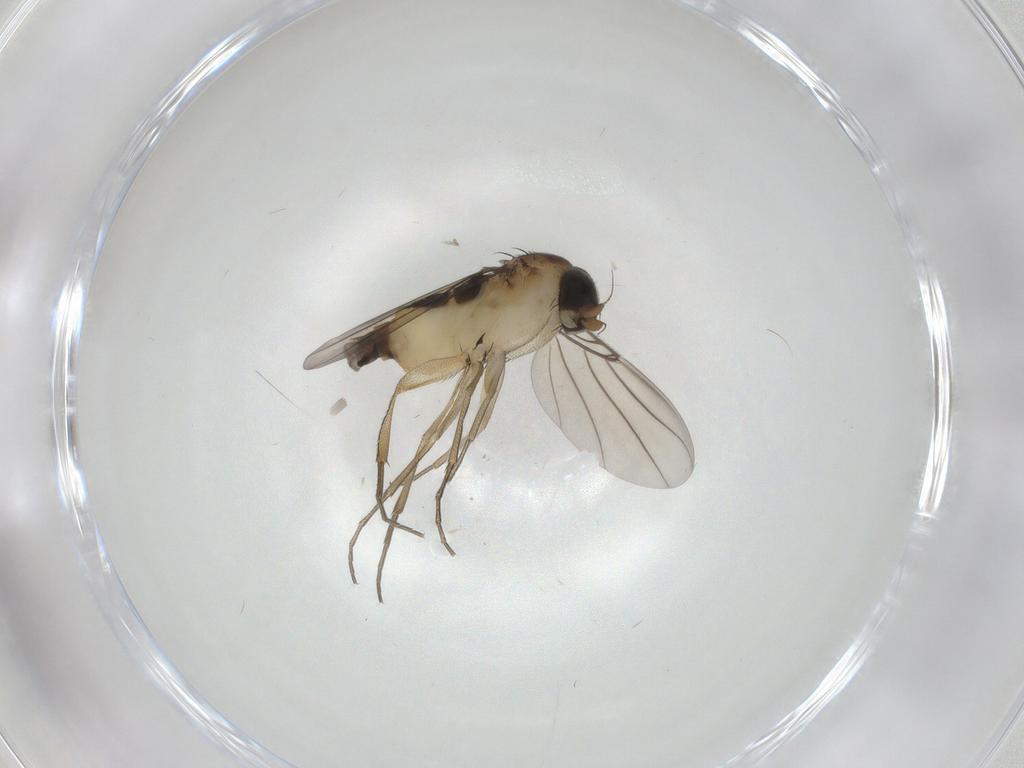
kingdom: Animalia
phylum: Arthropoda
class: Insecta
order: Diptera
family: Phoridae
